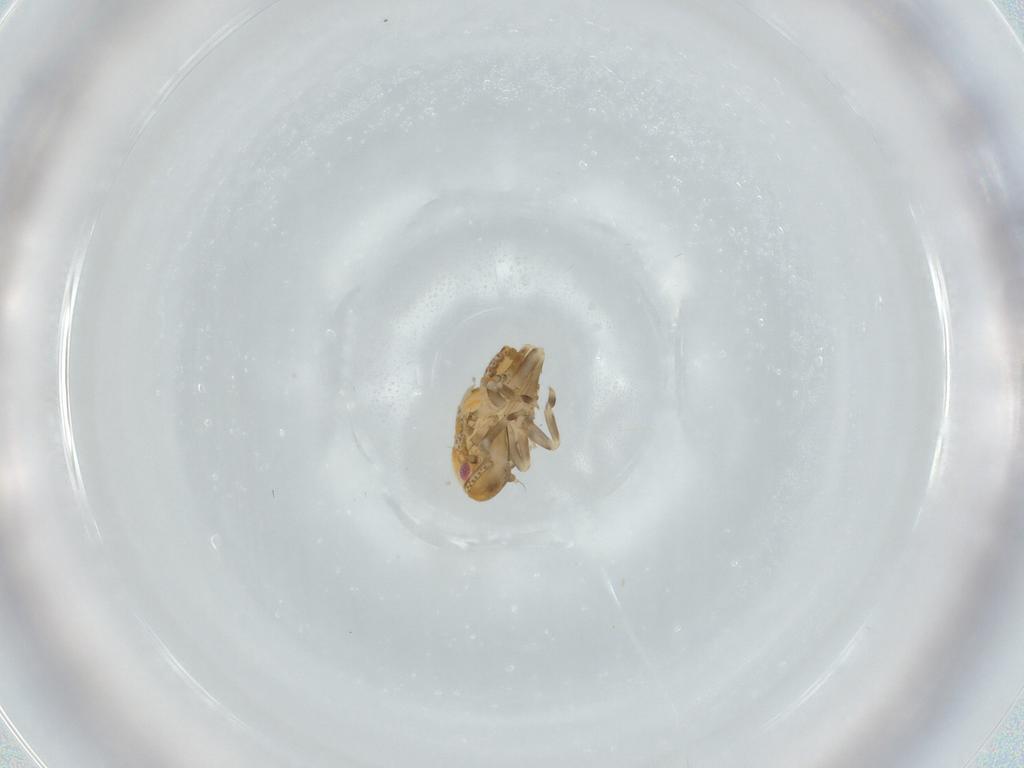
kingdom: Animalia
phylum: Arthropoda
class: Insecta
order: Hemiptera
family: Flatidae
